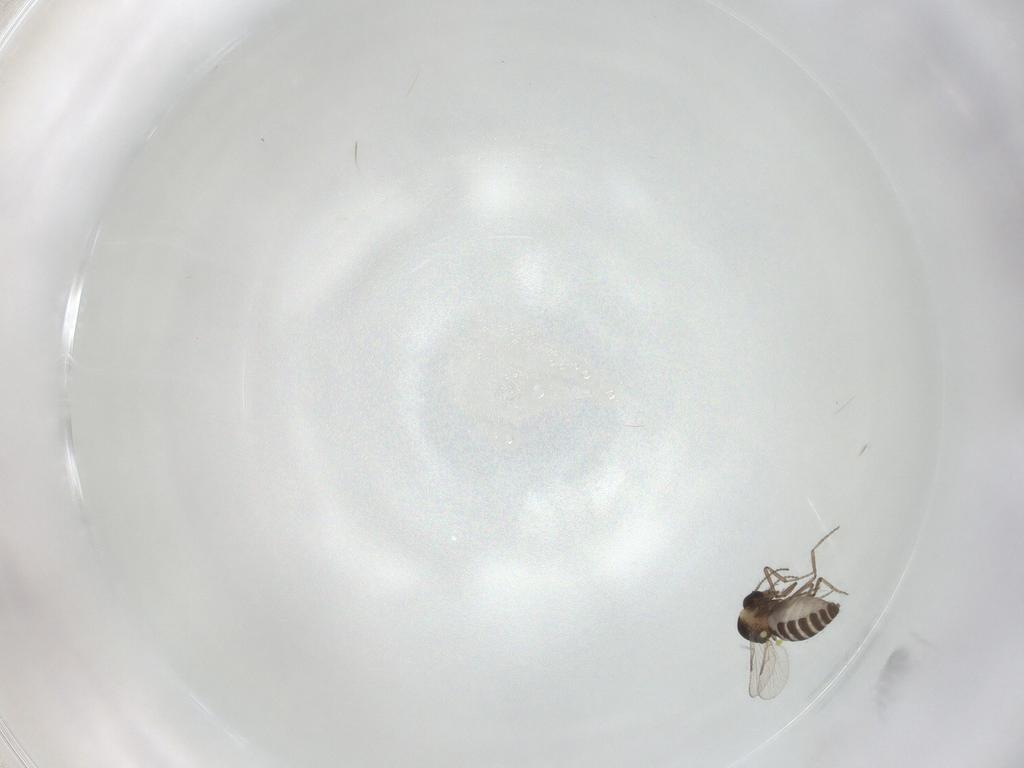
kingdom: Animalia
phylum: Arthropoda
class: Insecta
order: Diptera
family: Ceratopogonidae
